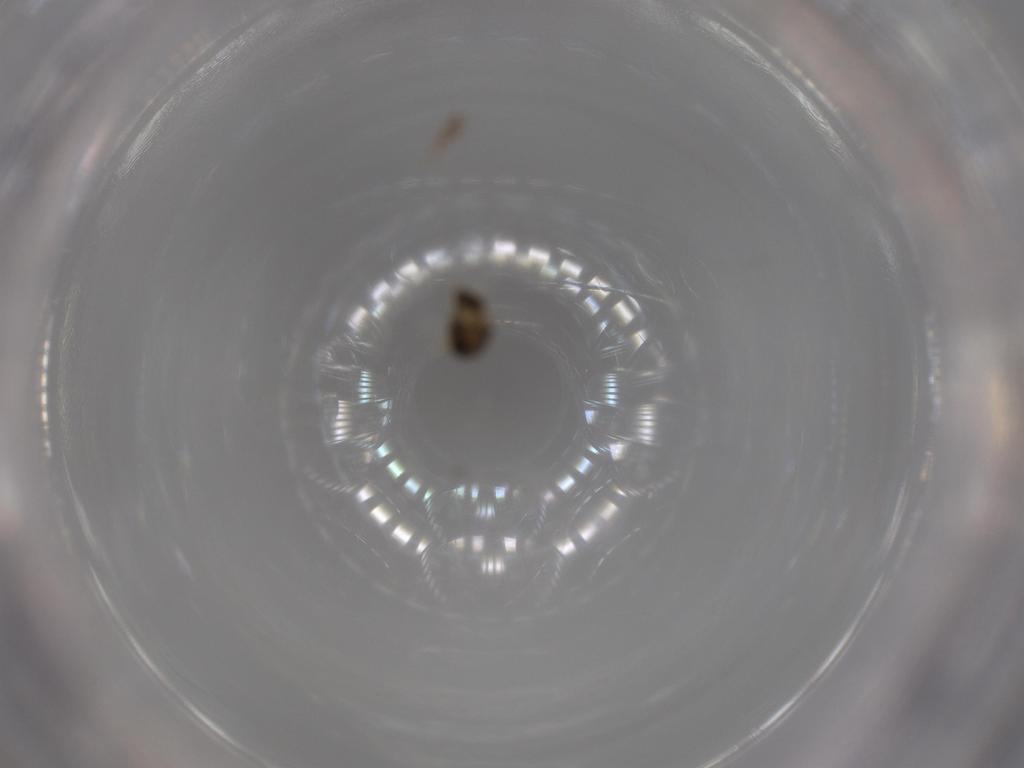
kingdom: Animalia
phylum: Arthropoda
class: Insecta
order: Diptera
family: Chironomidae
